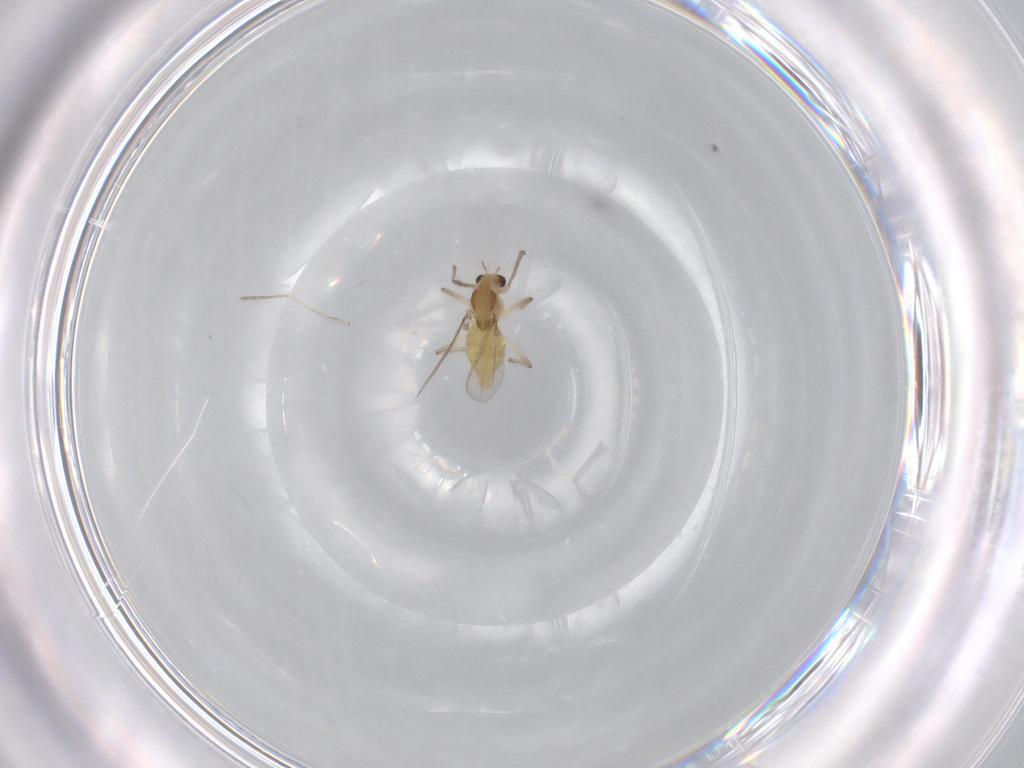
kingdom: Animalia
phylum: Arthropoda
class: Insecta
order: Diptera
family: Chironomidae
